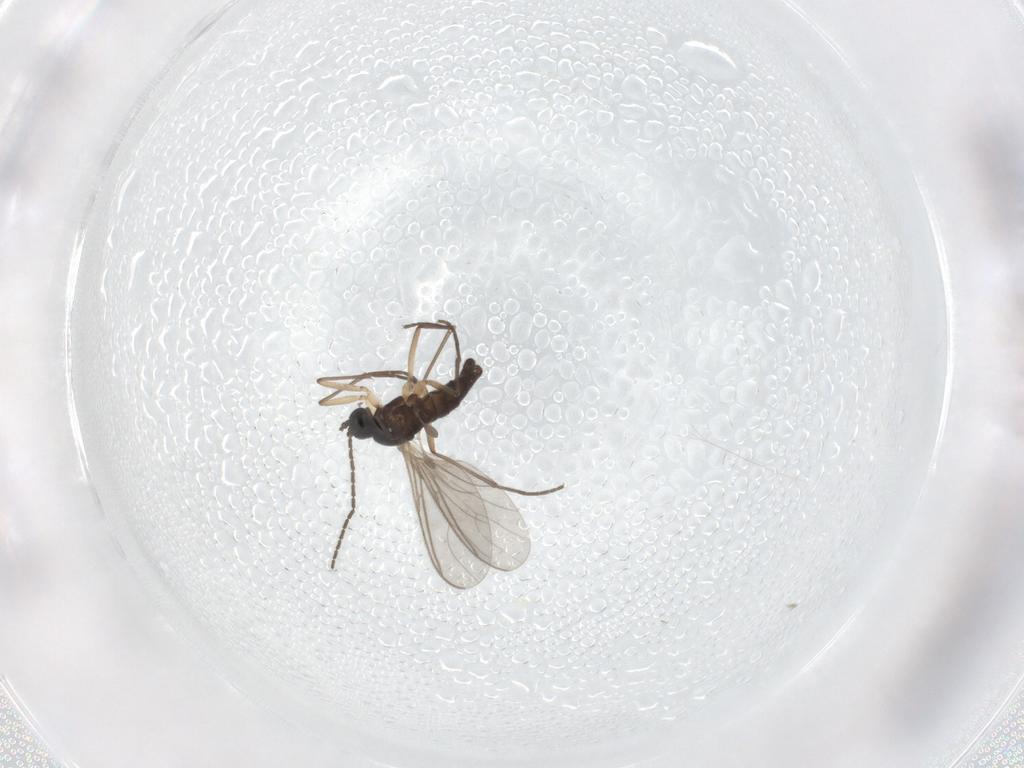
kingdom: Animalia
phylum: Arthropoda
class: Insecta
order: Diptera
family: Sciaridae
